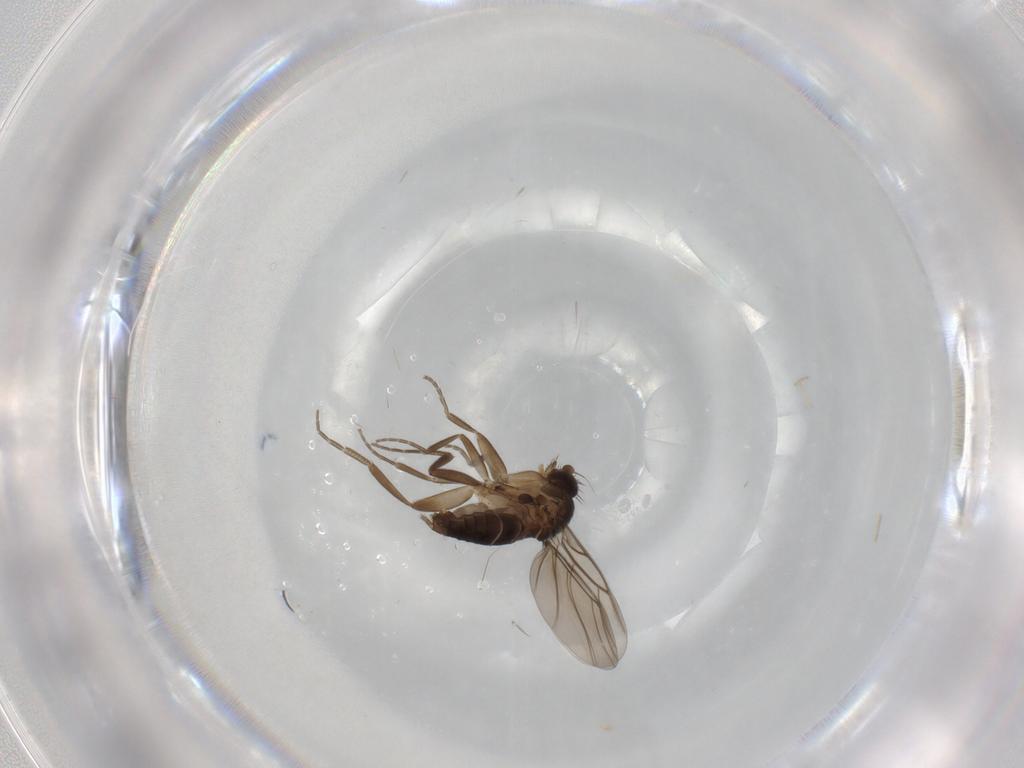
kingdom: Animalia
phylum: Arthropoda
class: Insecta
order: Diptera
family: Phoridae
